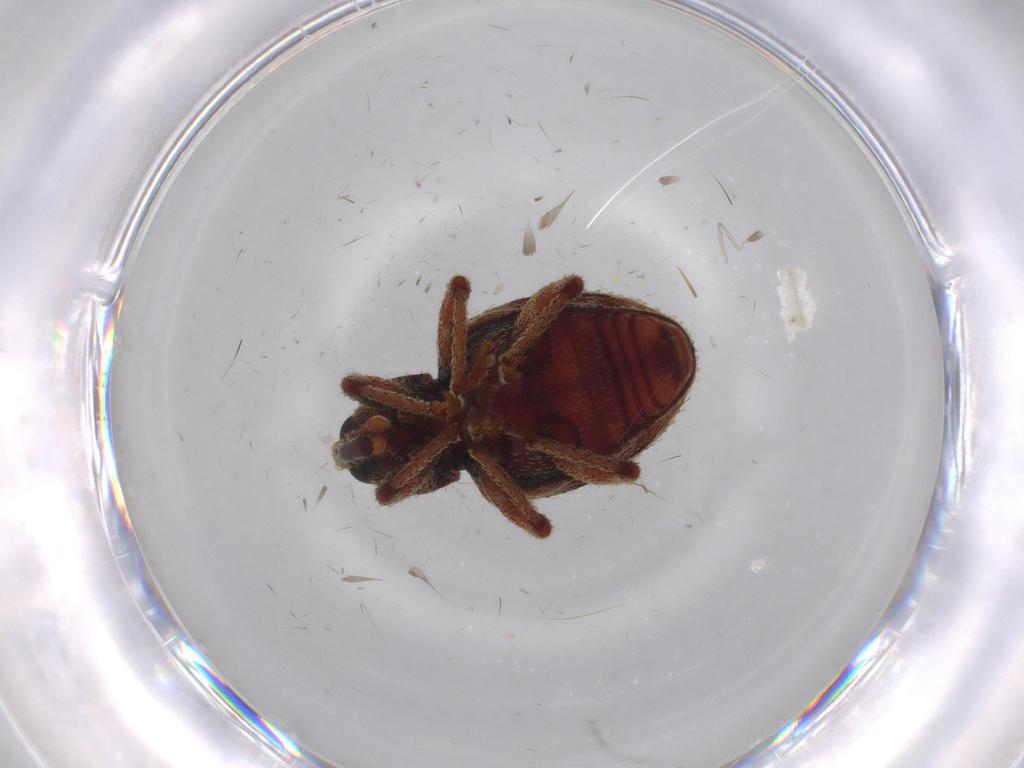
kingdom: Animalia
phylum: Arthropoda
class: Insecta
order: Coleoptera
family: Curculionidae
